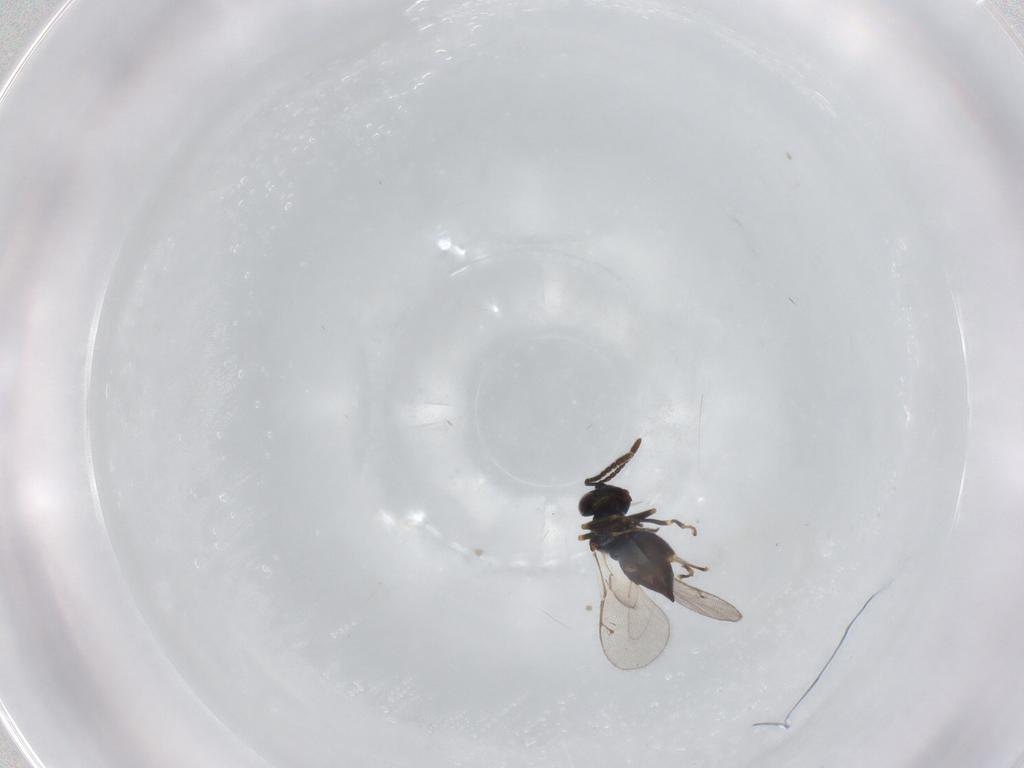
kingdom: Animalia
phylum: Arthropoda
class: Insecta
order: Hymenoptera
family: Pteromalidae
